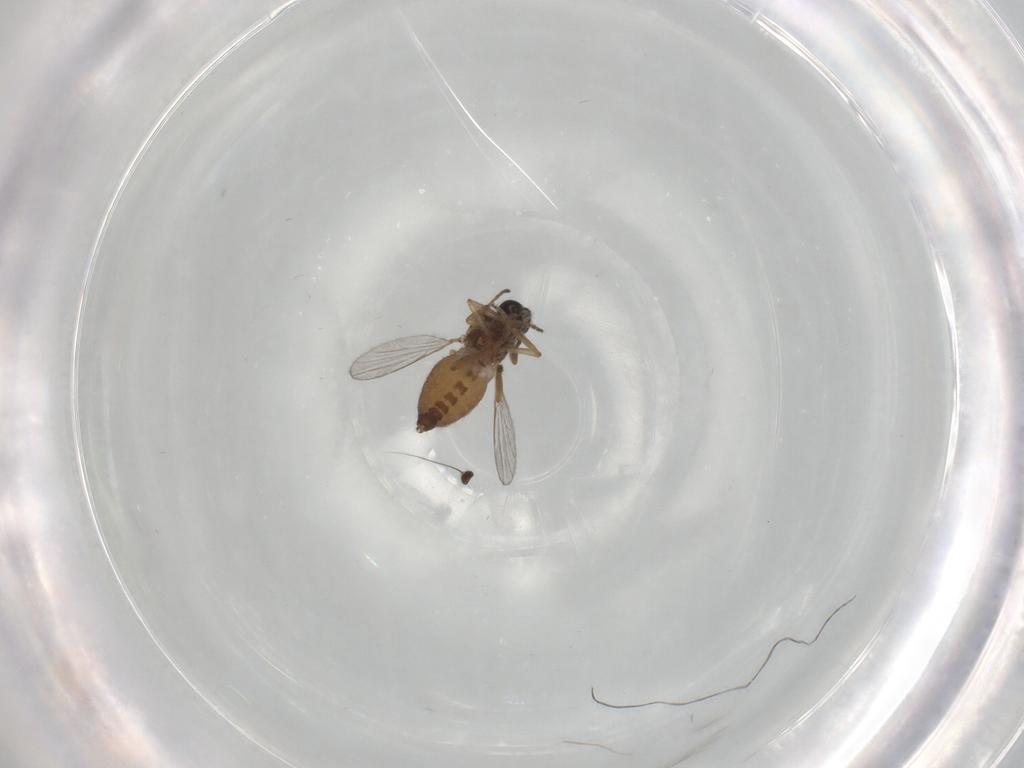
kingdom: Animalia
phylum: Arthropoda
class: Insecta
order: Diptera
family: Ceratopogonidae
